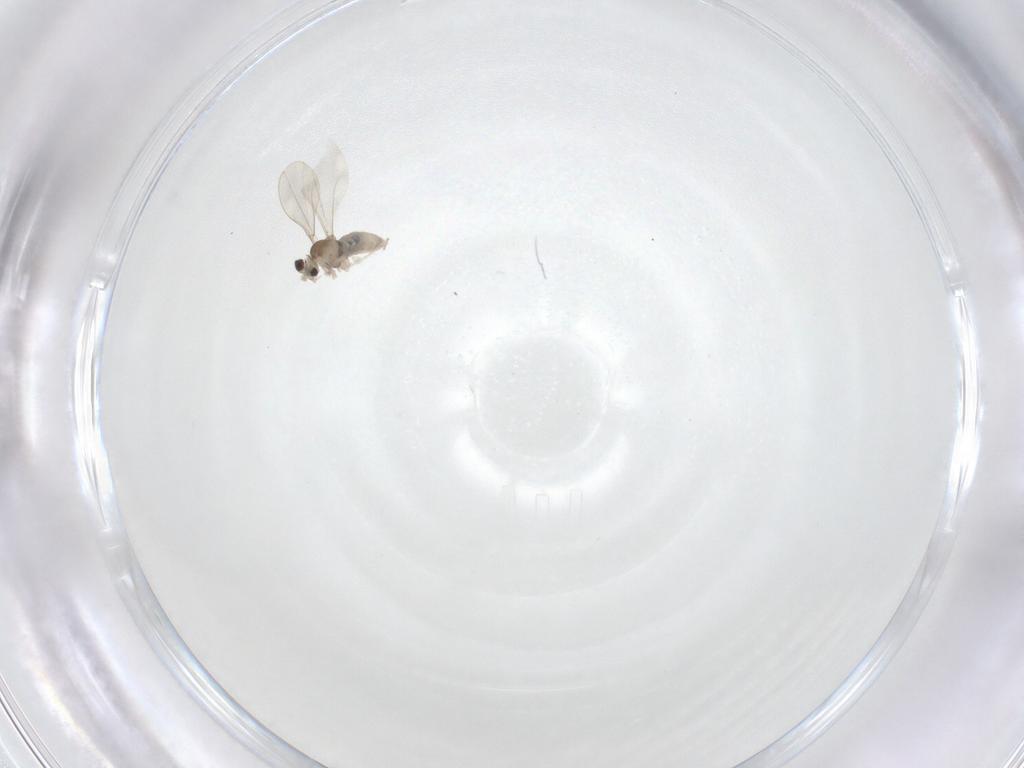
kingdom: Animalia
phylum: Arthropoda
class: Insecta
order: Diptera
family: Cecidomyiidae
